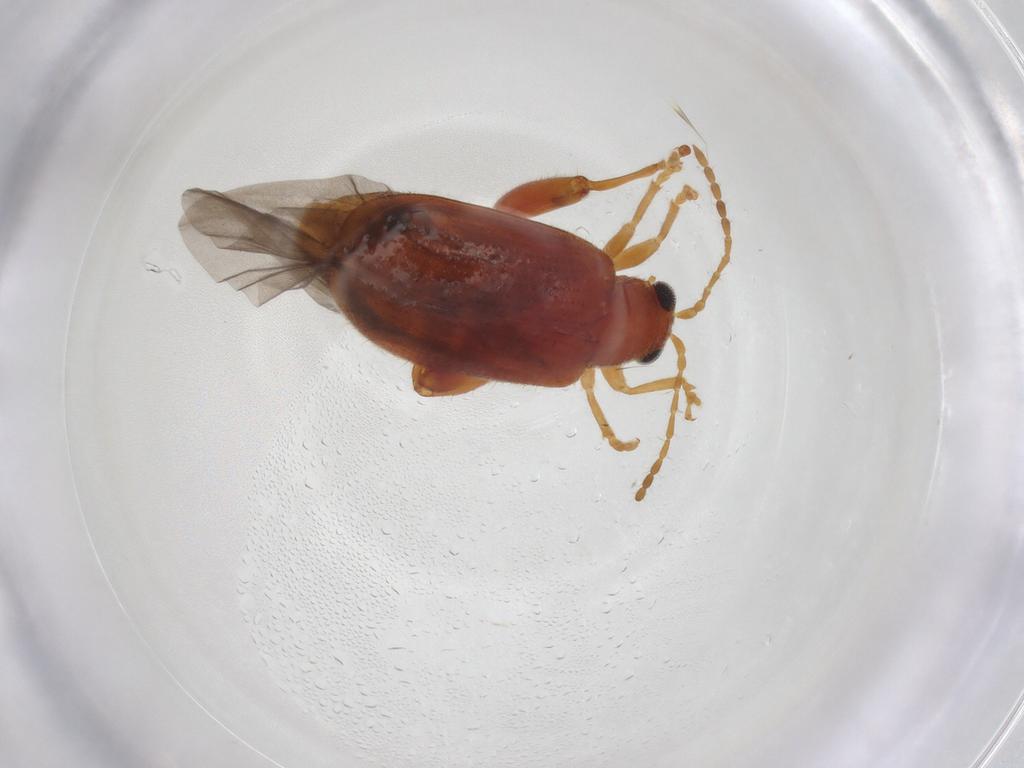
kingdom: Animalia
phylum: Arthropoda
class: Insecta
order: Coleoptera
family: Chrysomelidae
